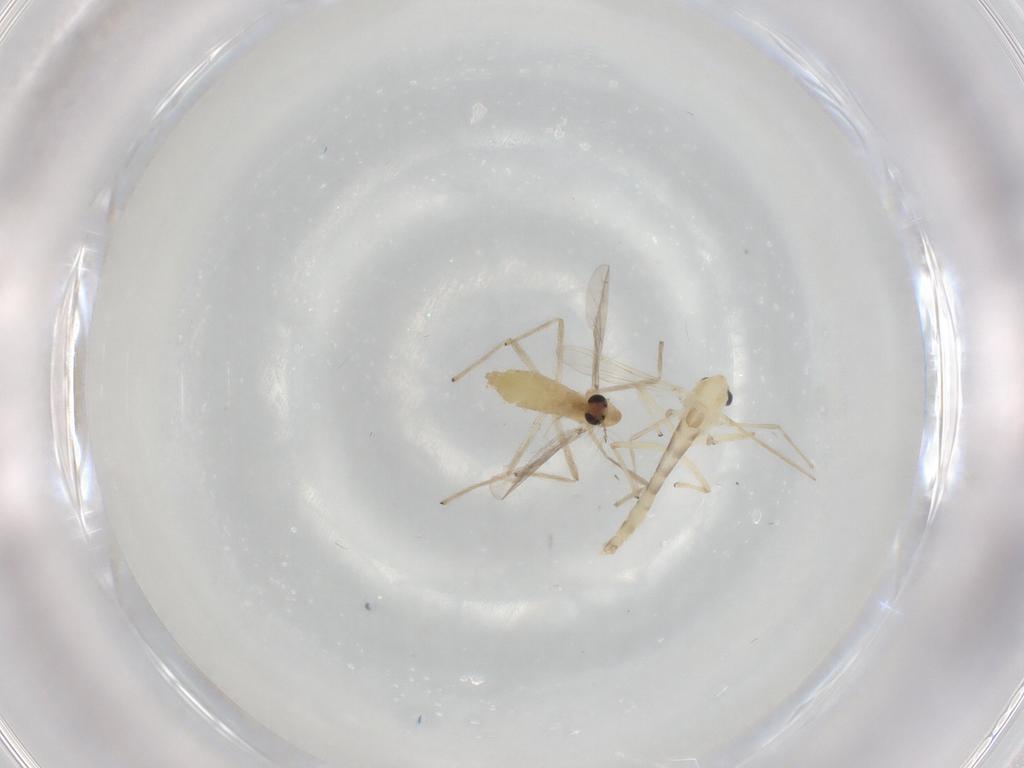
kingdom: Animalia
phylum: Arthropoda
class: Insecta
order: Diptera
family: Chironomidae
